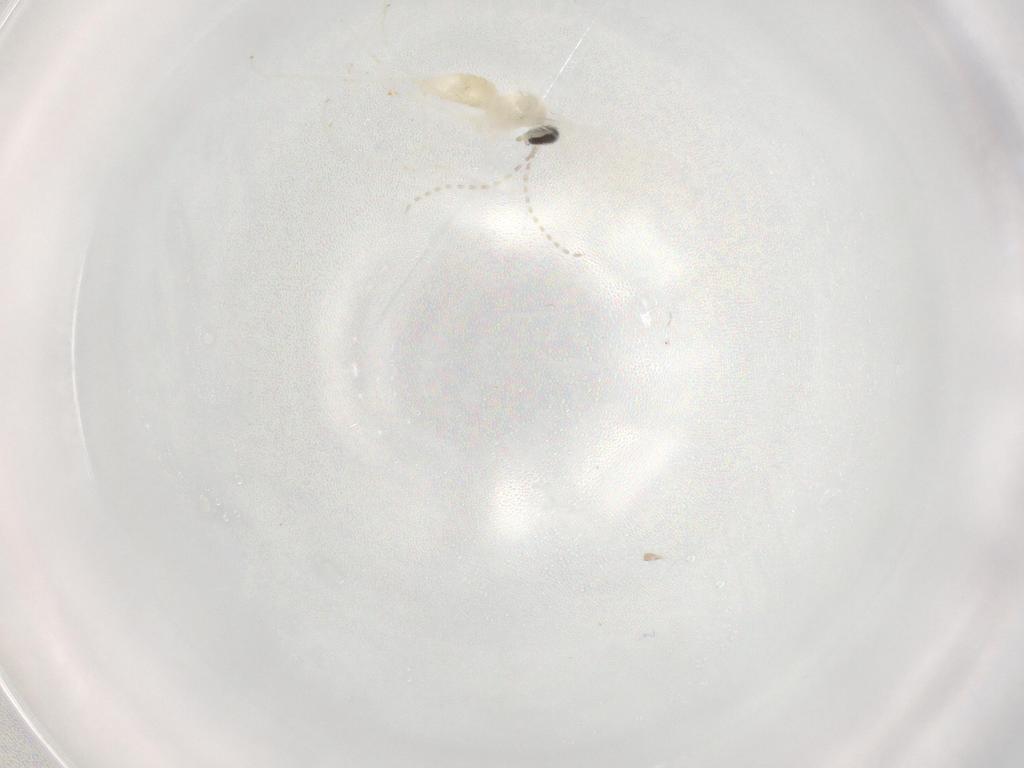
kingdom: Animalia
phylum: Arthropoda
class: Insecta
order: Diptera
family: Cecidomyiidae
